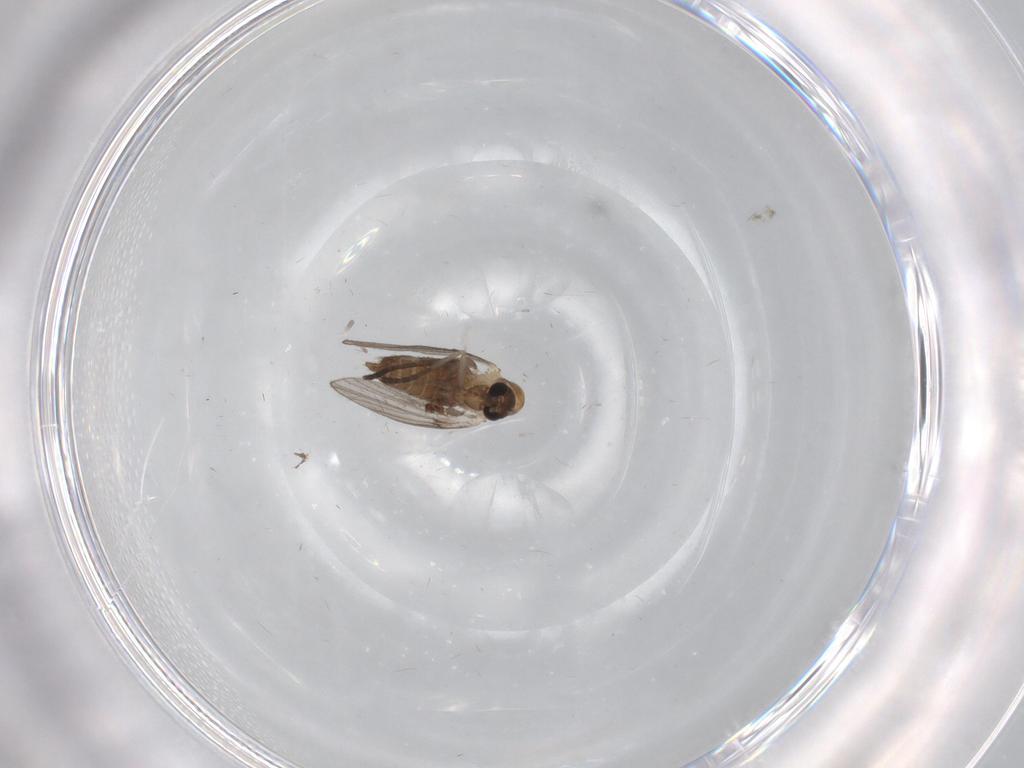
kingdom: Animalia
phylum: Arthropoda
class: Insecta
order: Diptera
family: Psychodidae
